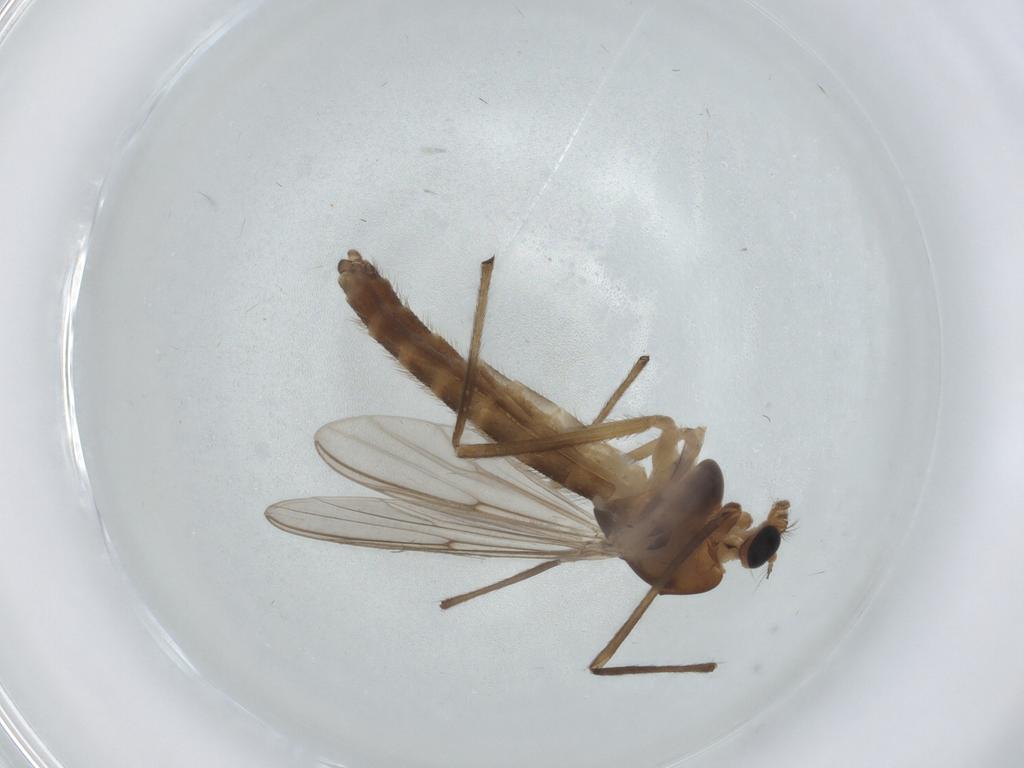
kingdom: Animalia
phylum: Arthropoda
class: Insecta
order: Diptera
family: Chironomidae
